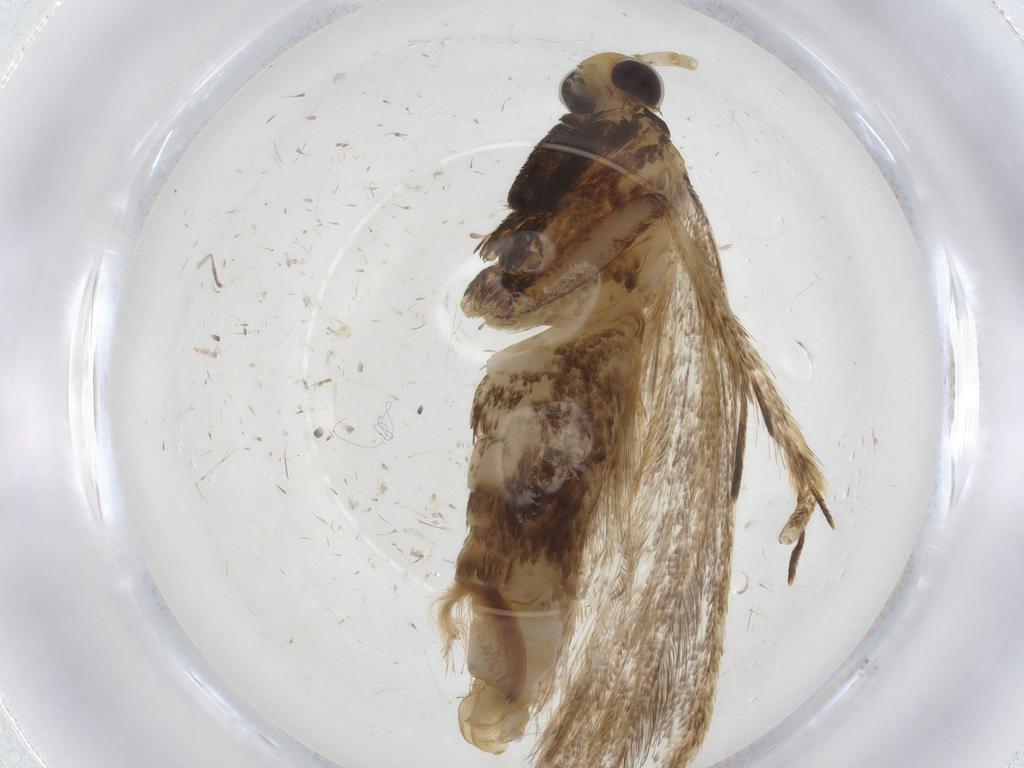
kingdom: Animalia
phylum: Arthropoda
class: Insecta
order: Lepidoptera
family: Lecithoceridae
